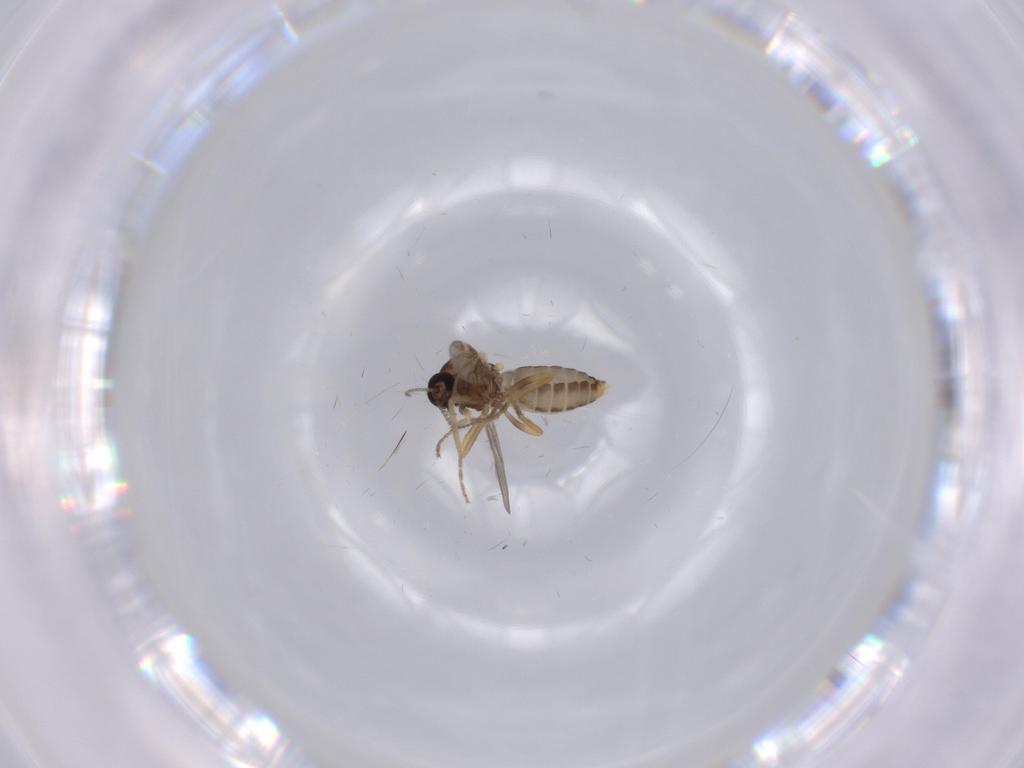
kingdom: Animalia
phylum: Arthropoda
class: Insecta
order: Diptera
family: Ceratopogonidae
